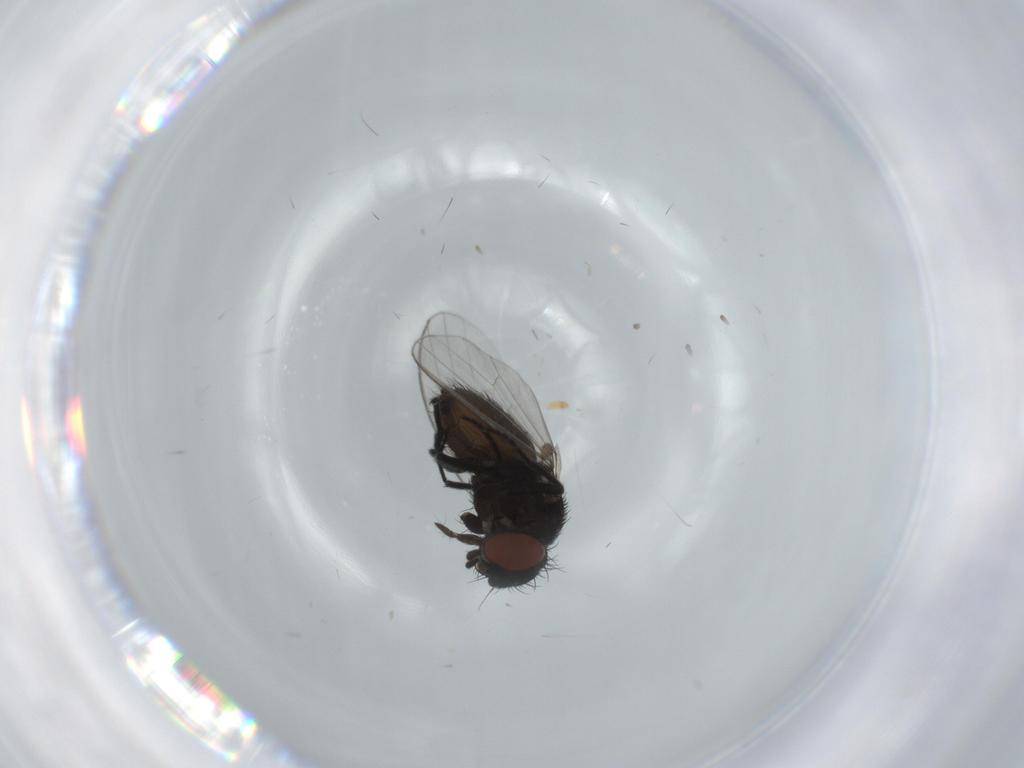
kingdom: Animalia
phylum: Arthropoda
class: Insecta
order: Diptera
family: Milichiidae
